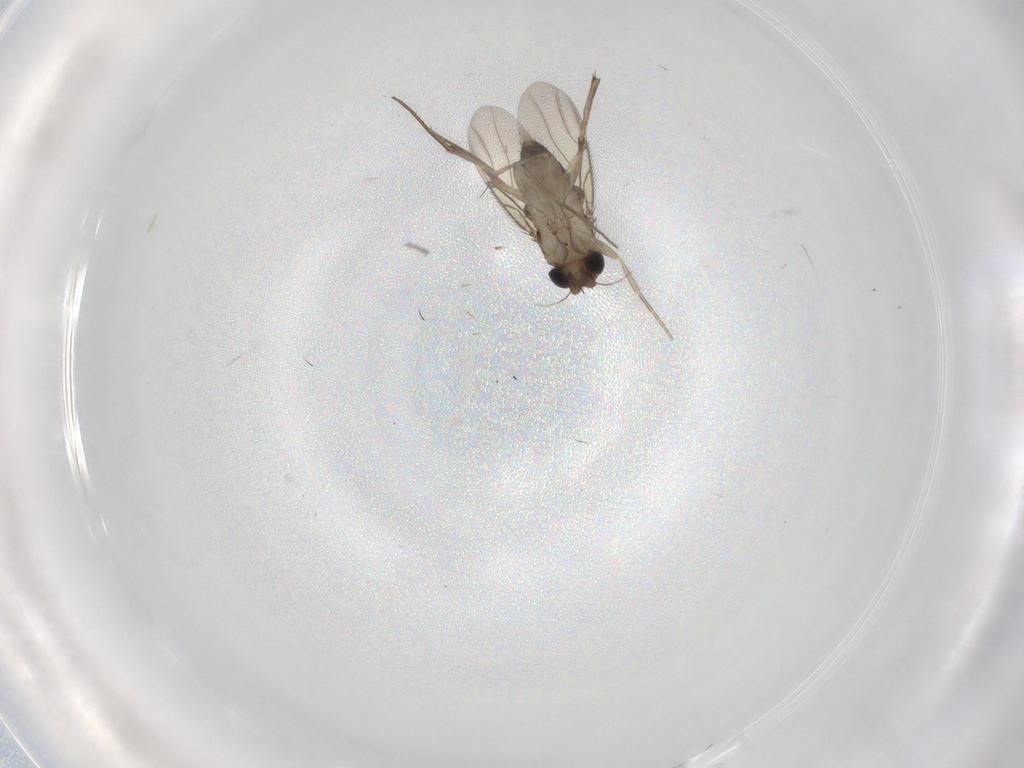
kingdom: Animalia
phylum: Arthropoda
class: Insecta
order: Diptera
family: Phoridae
